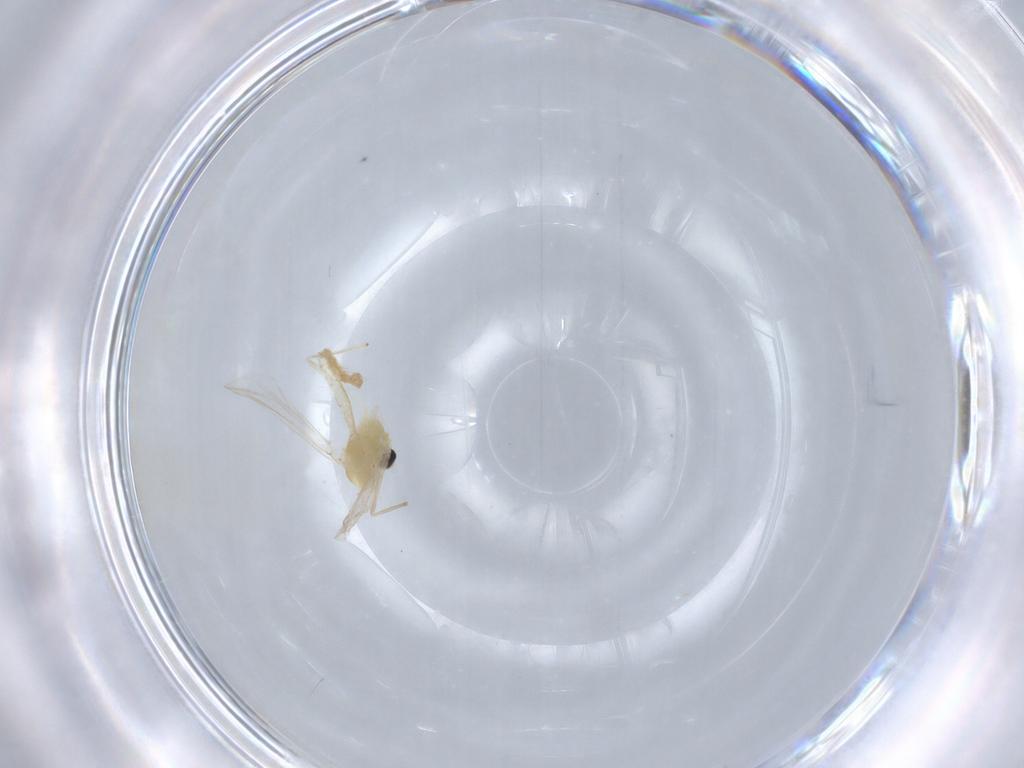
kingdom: Animalia
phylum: Arthropoda
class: Insecta
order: Diptera
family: Chironomidae
